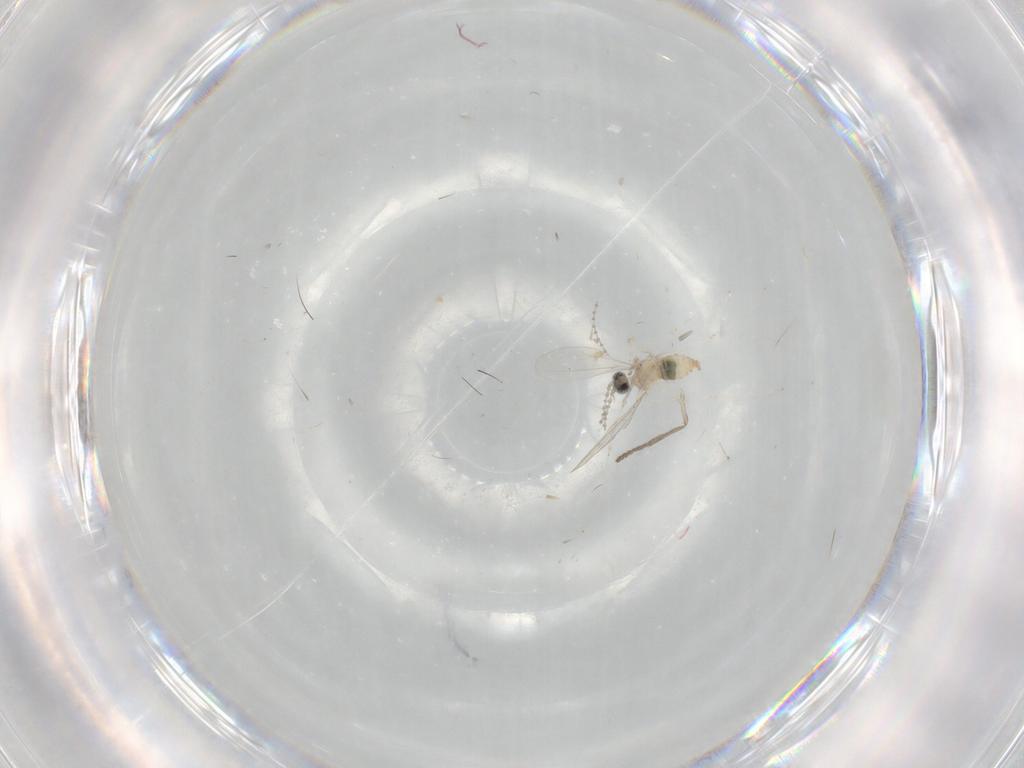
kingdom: Animalia
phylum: Arthropoda
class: Insecta
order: Diptera
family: Cecidomyiidae
